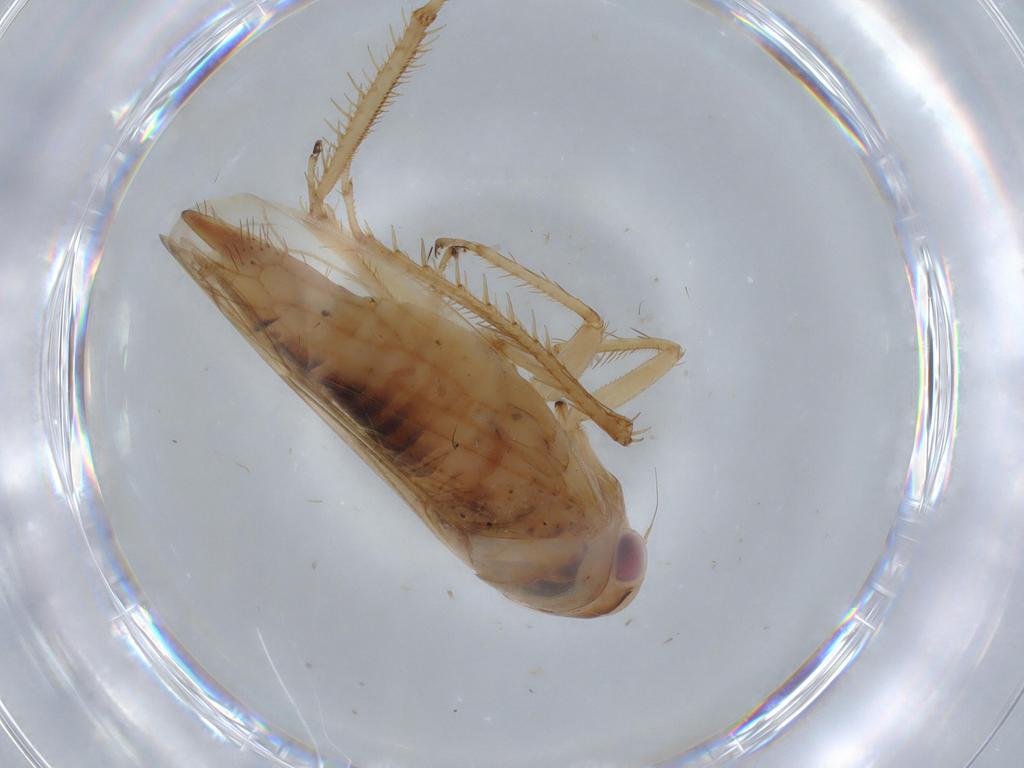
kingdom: Animalia
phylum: Arthropoda
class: Insecta
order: Hemiptera
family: Cicadellidae
